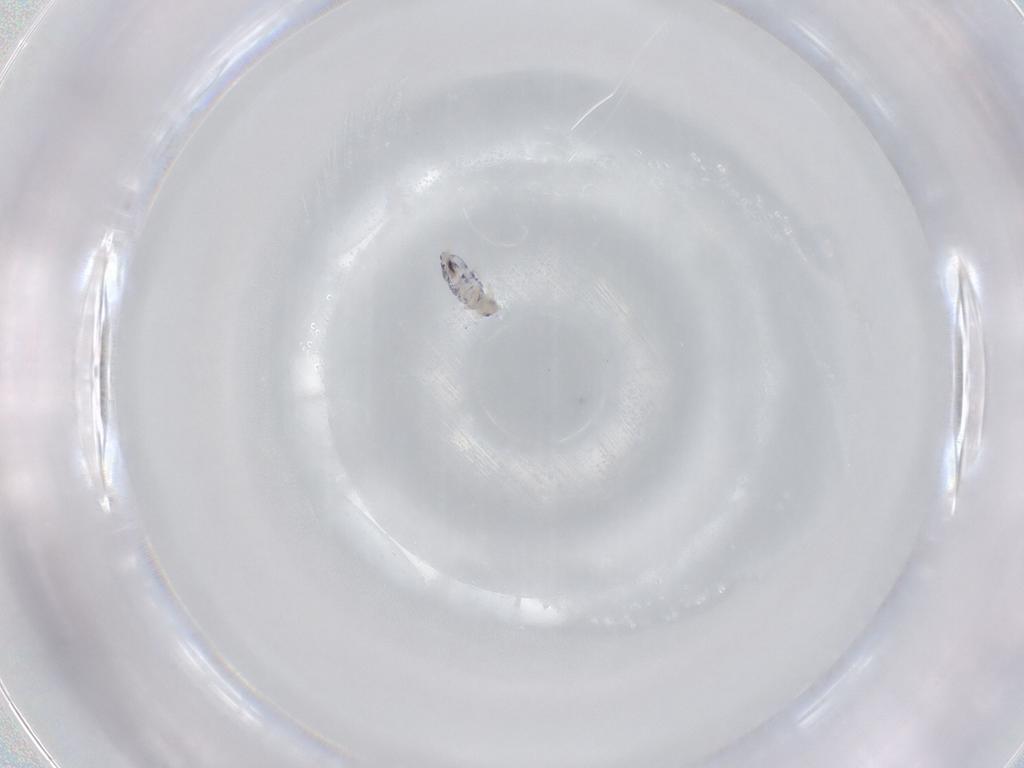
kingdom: Animalia
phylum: Arthropoda
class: Collembola
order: Entomobryomorpha
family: Entomobryidae
